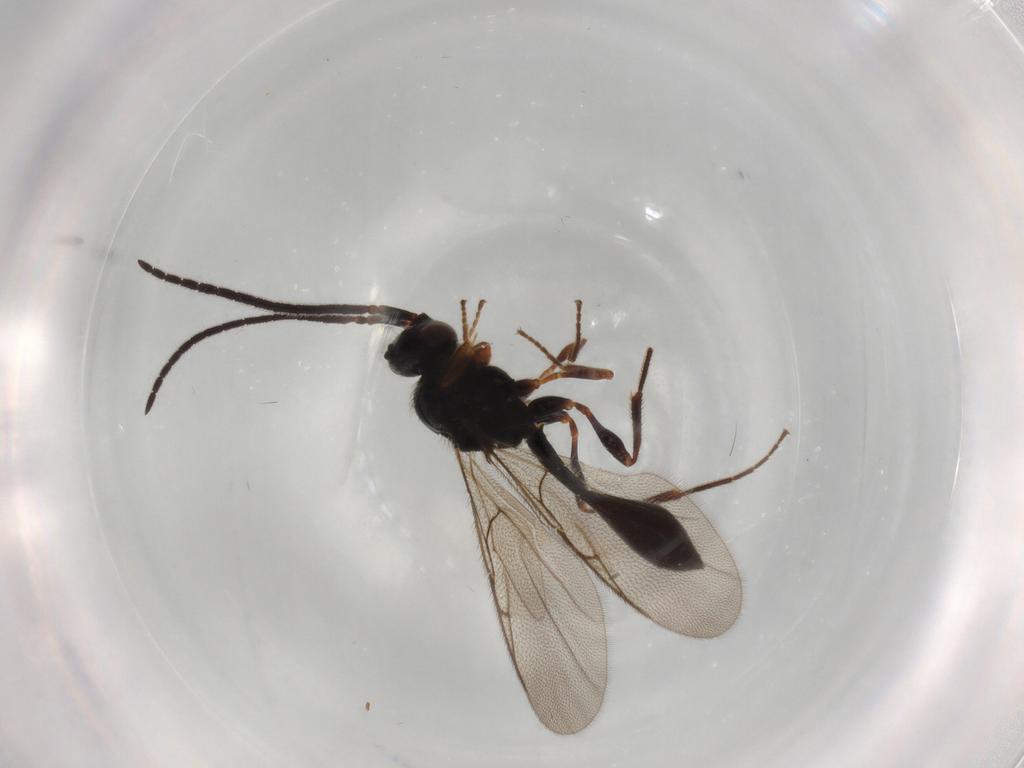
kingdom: Animalia
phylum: Arthropoda
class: Insecta
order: Hymenoptera
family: Diapriidae
